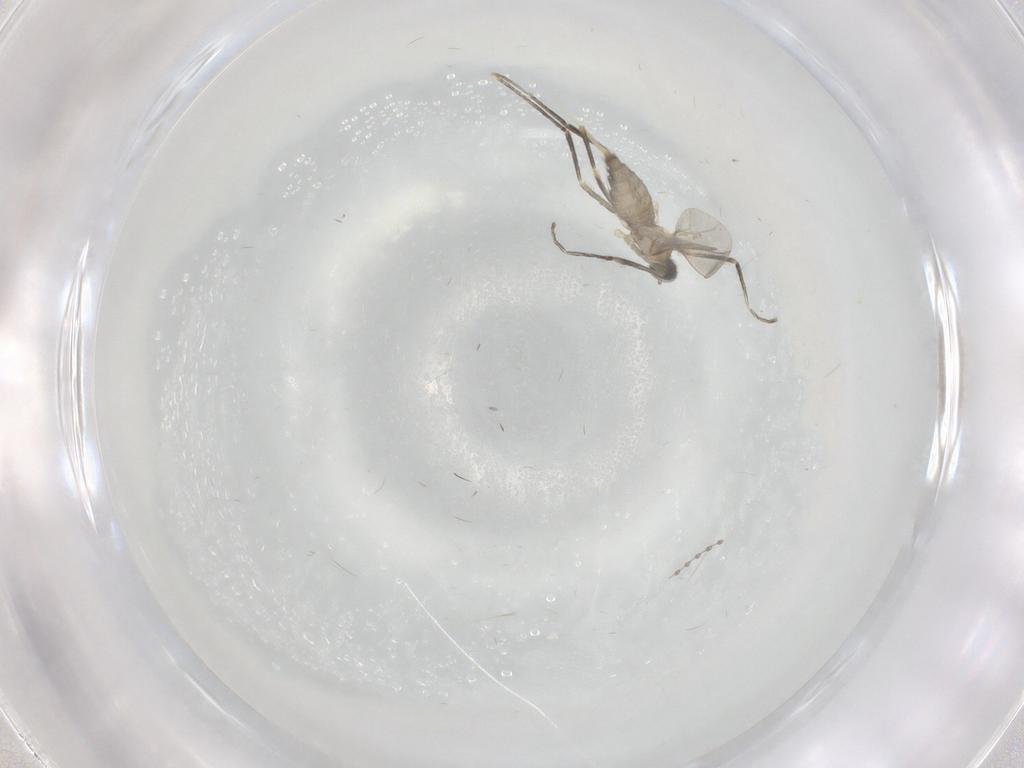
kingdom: Animalia
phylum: Arthropoda
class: Insecta
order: Diptera
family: Cecidomyiidae
